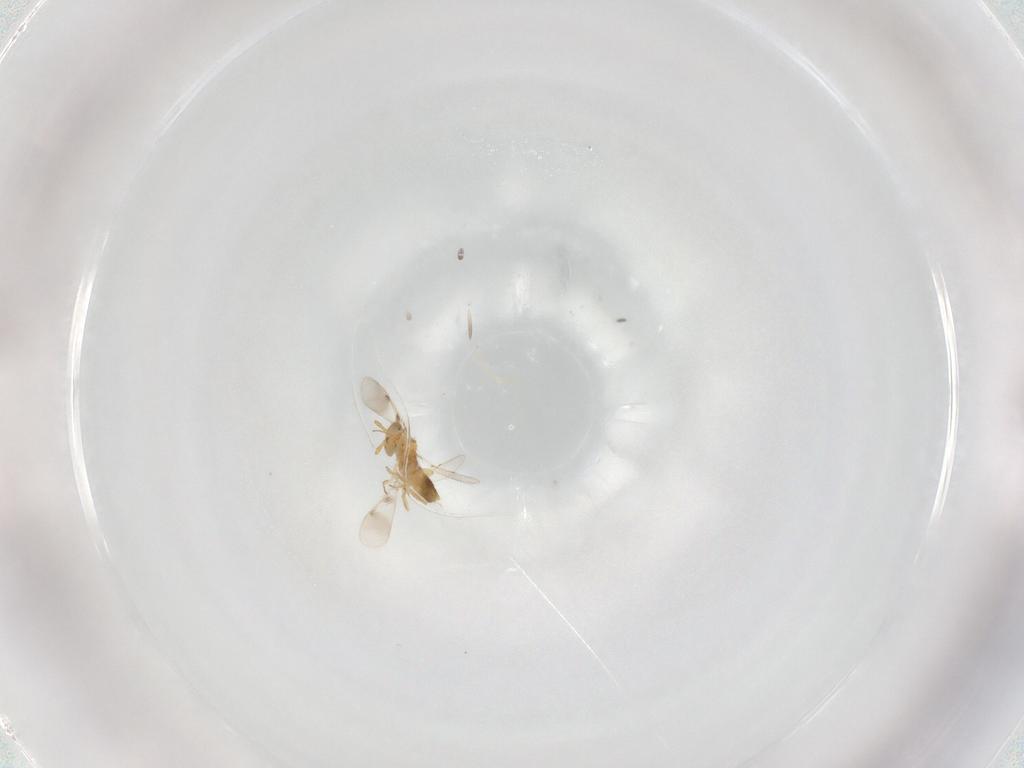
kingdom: Animalia
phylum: Arthropoda
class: Insecta
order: Hymenoptera
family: Aphelinidae
